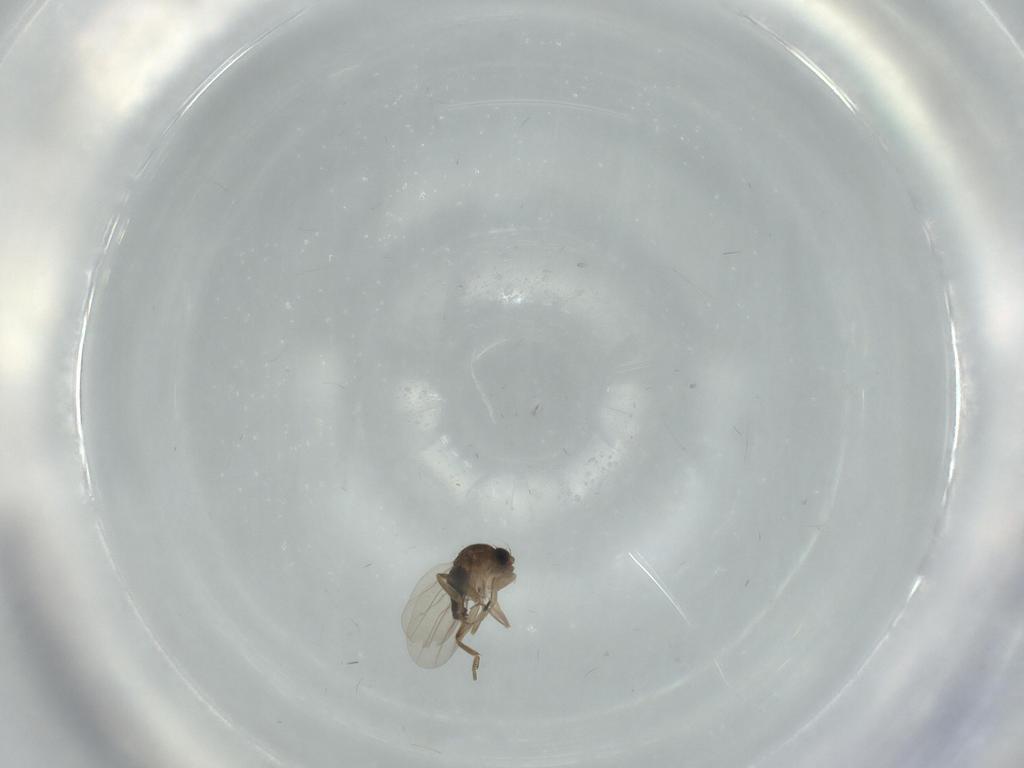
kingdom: Animalia
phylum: Arthropoda
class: Insecta
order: Diptera
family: Phoridae
